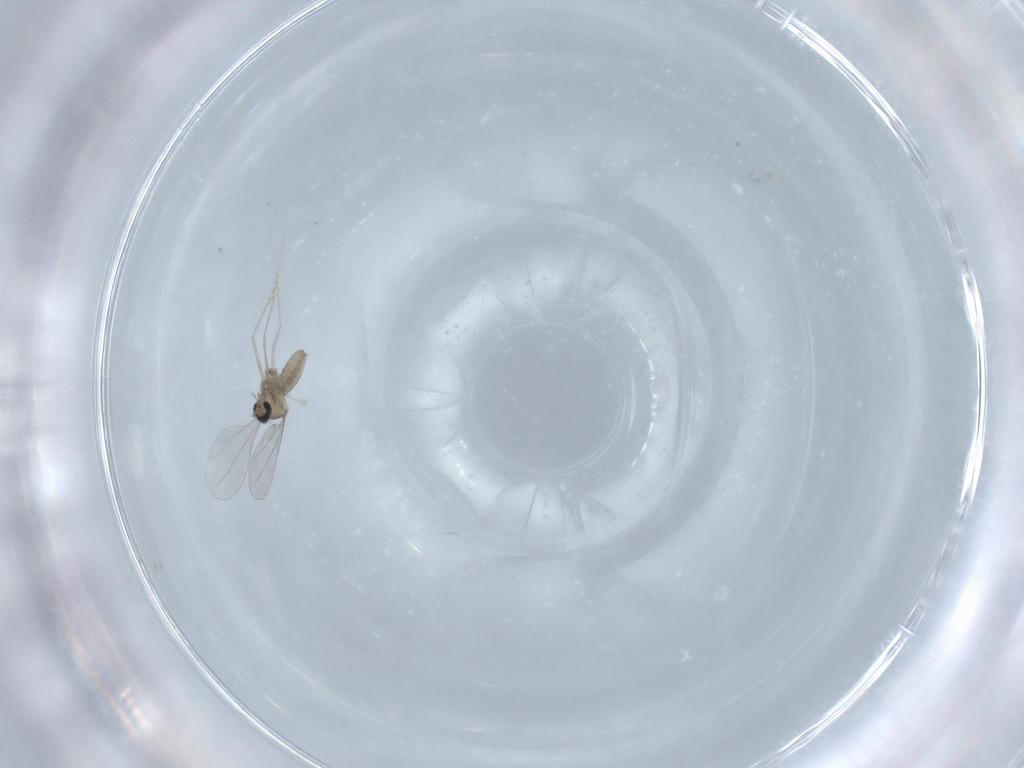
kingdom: Animalia
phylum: Arthropoda
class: Insecta
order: Diptera
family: Cecidomyiidae
